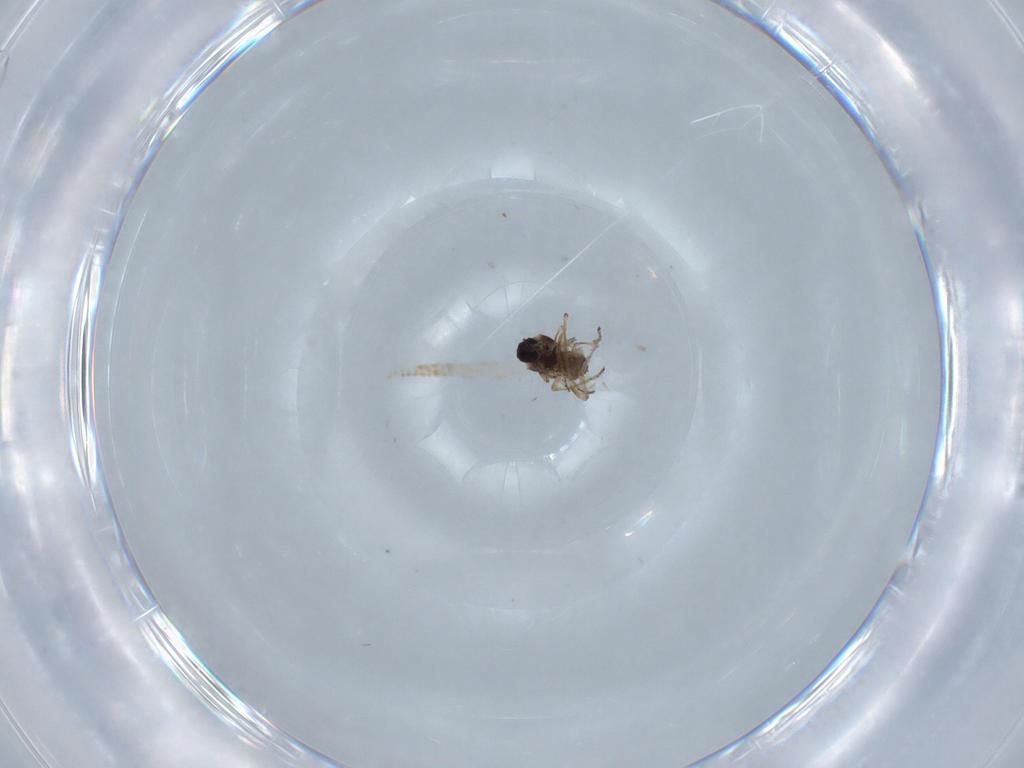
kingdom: Animalia
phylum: Arthropoda
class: Insecta
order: Diptera
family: Ceratopogonidae
